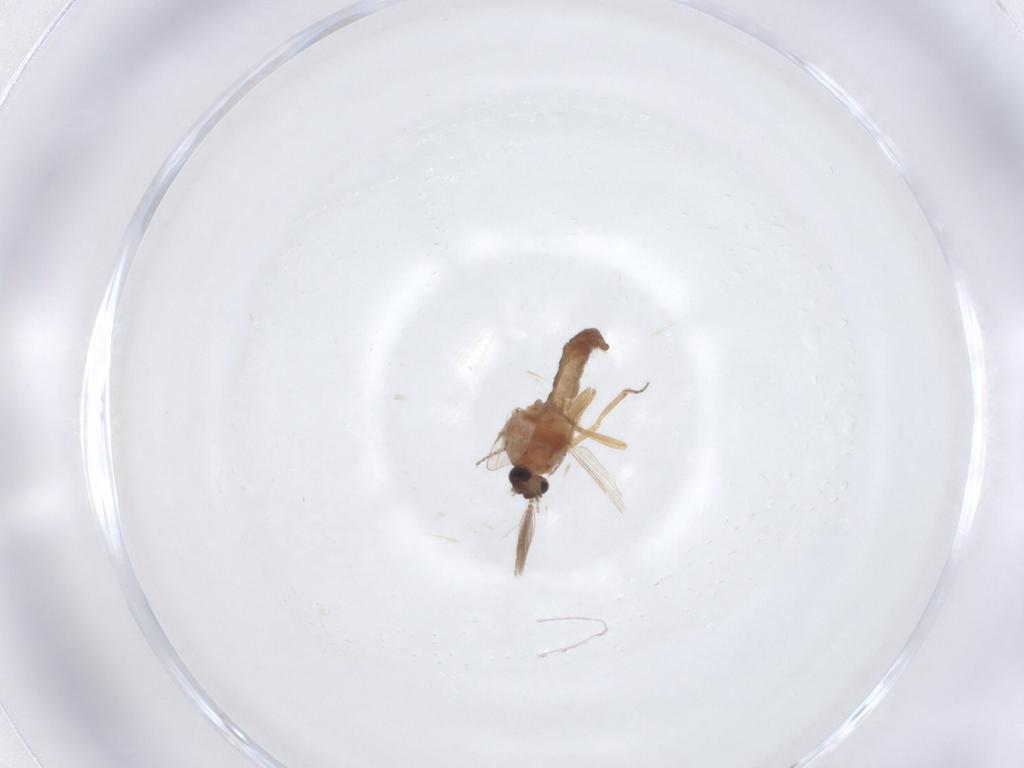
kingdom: Animalia
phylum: Arthropoda
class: Insecta
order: Diptera
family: Ceratopogonidae
